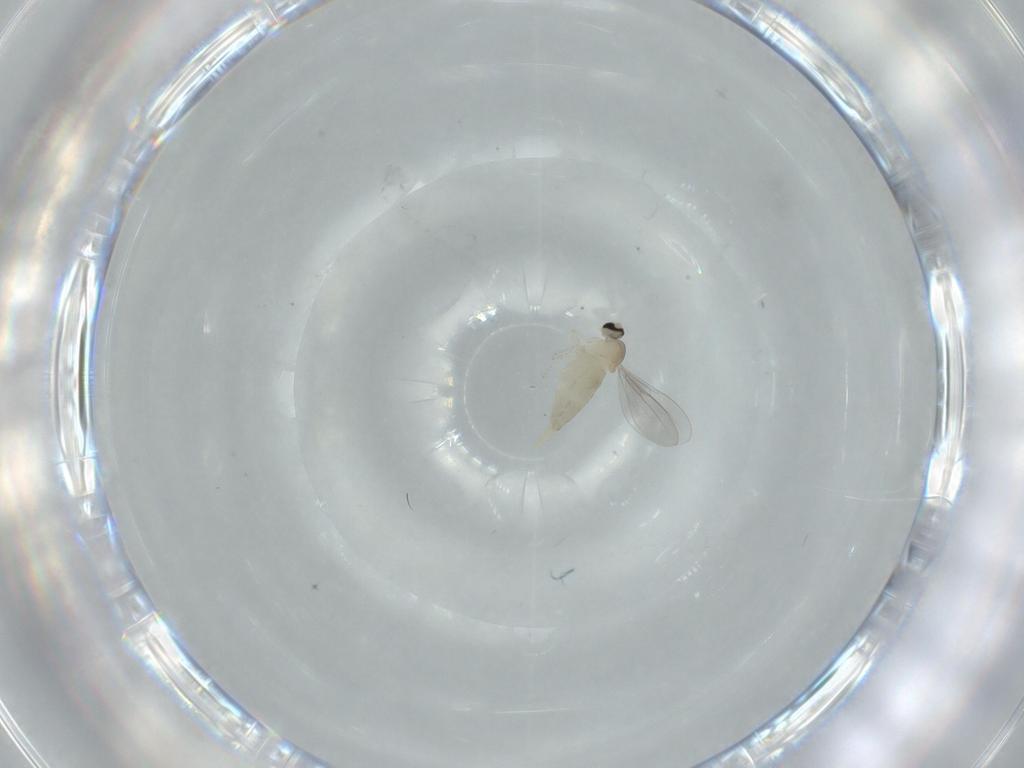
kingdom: Animalia
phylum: Arthropoda
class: Insecta
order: Diptera
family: Cecidomyiidae
